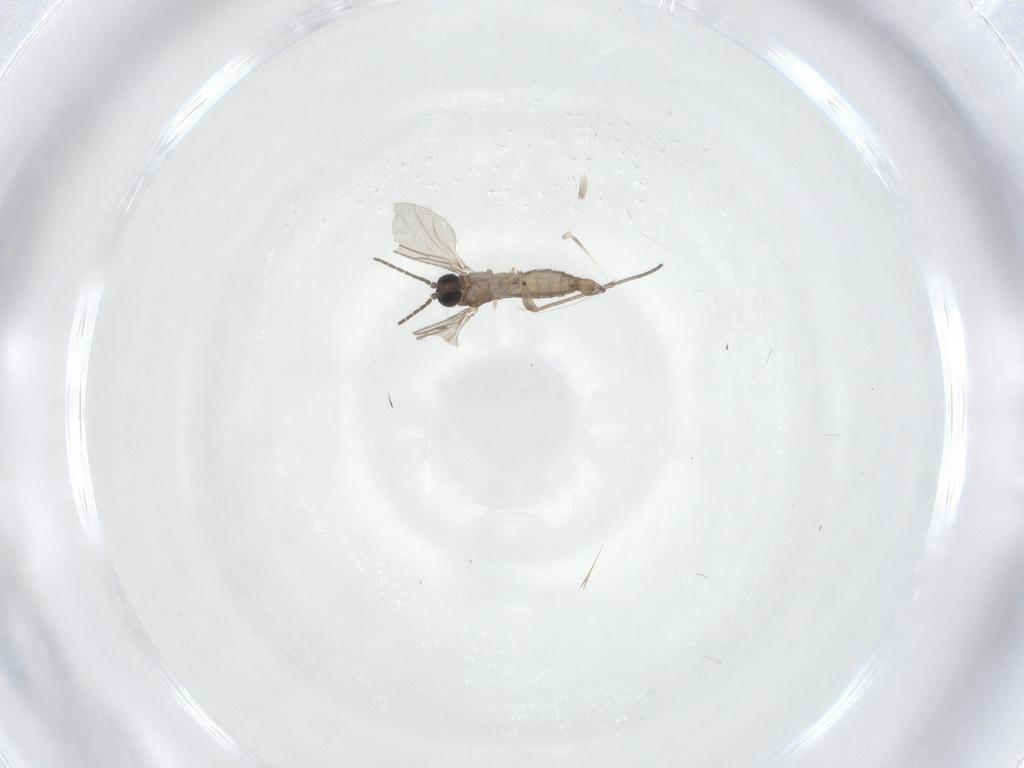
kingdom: Animalia
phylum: Arthropoda
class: Insecta
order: Diptera
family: Sciaridae
